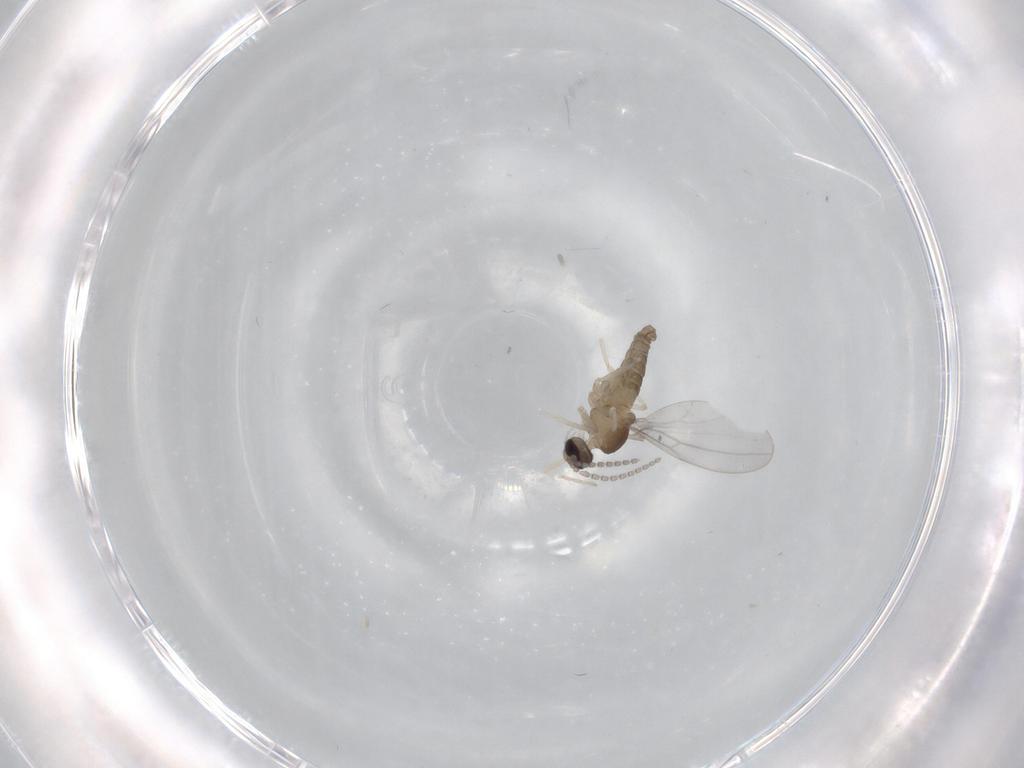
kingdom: Animalia
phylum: Arthropoda
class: Insecta
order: Diptera
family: Cecidomyiidae
